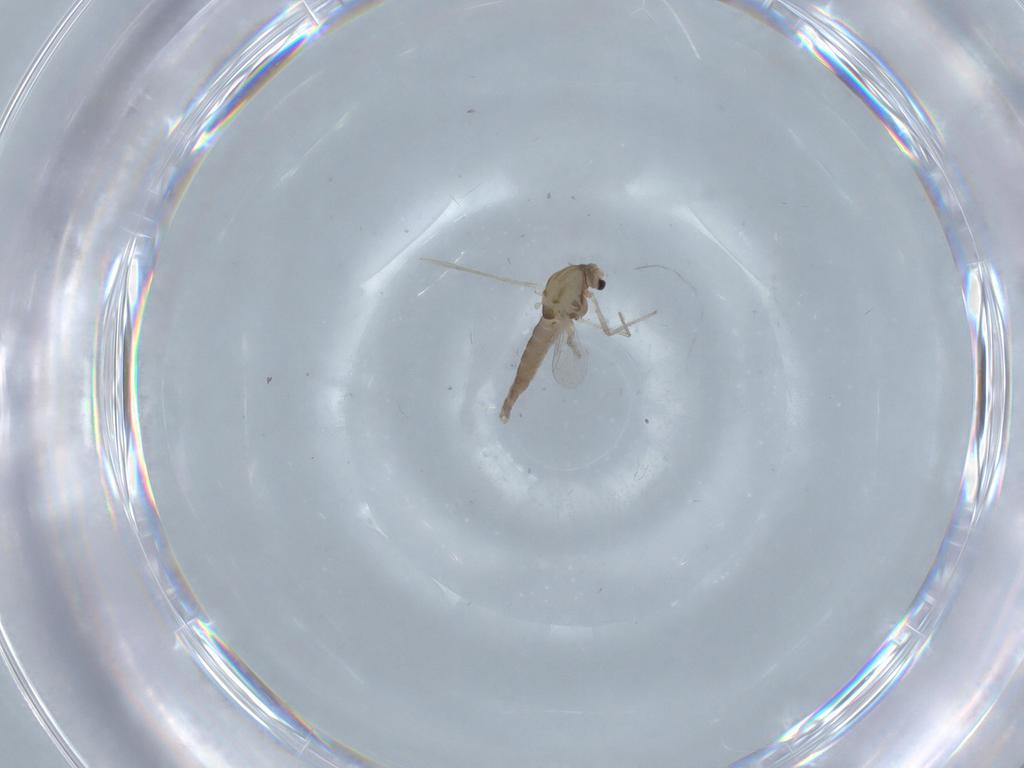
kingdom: Animalia
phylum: Arthropoda
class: Insecta
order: Diptera
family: Chironomidae
